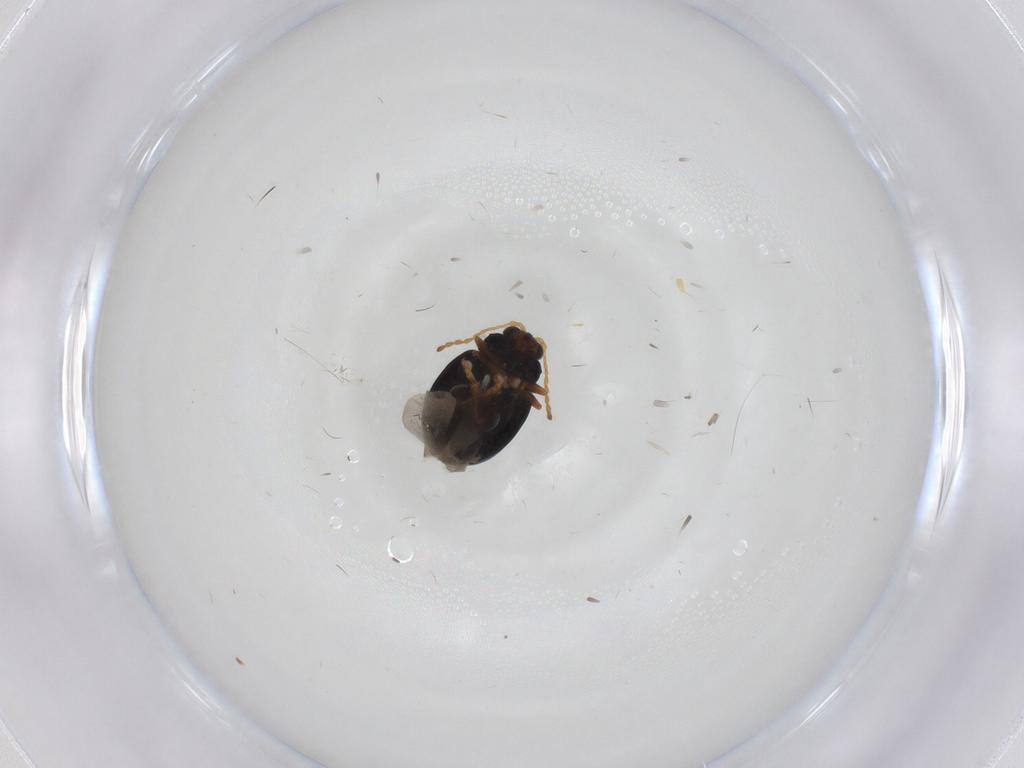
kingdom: Animalia
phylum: Arthropoda
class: Insecta
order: Coleoptera
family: Chrysomelidae
